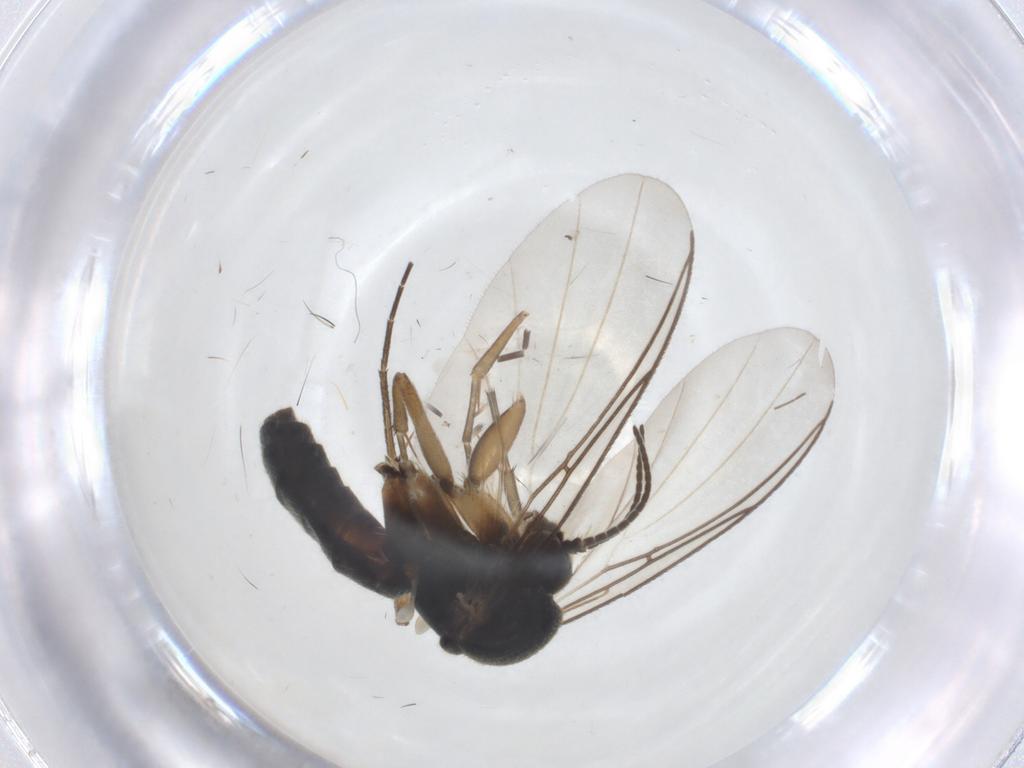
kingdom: Animalia
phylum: Arthropoda
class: Insecta
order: Diptera
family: Mycetophilidae
